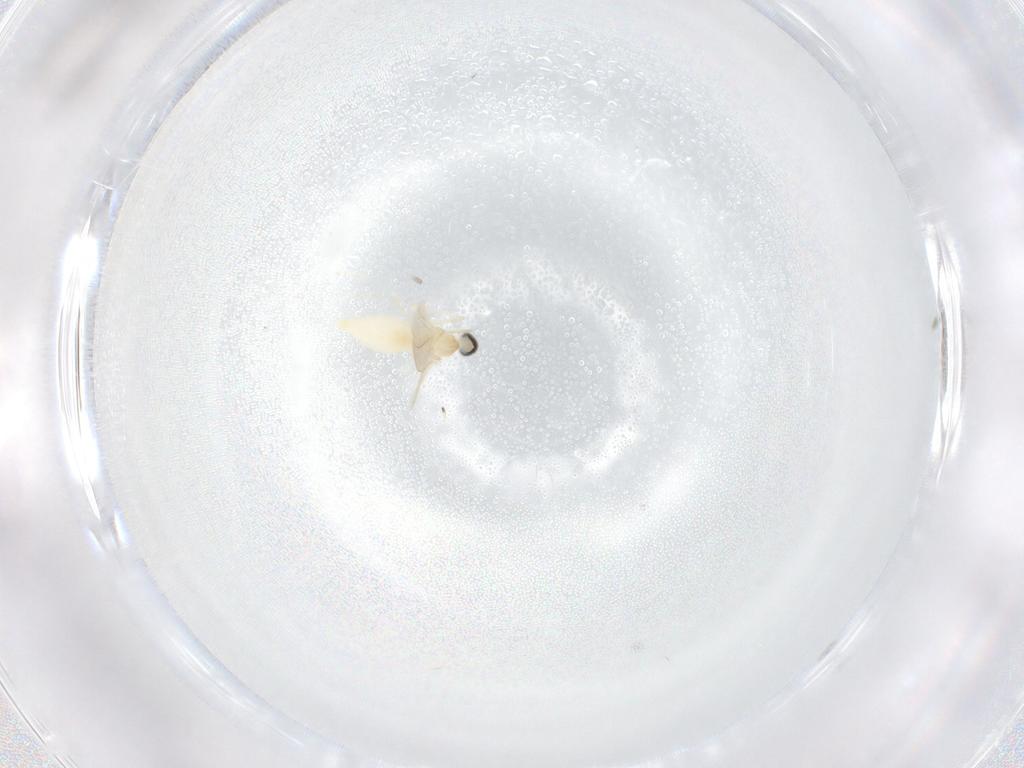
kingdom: Animalia
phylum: Arthropoda
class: Insecta
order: Diptera
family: Cecidomyiidae
